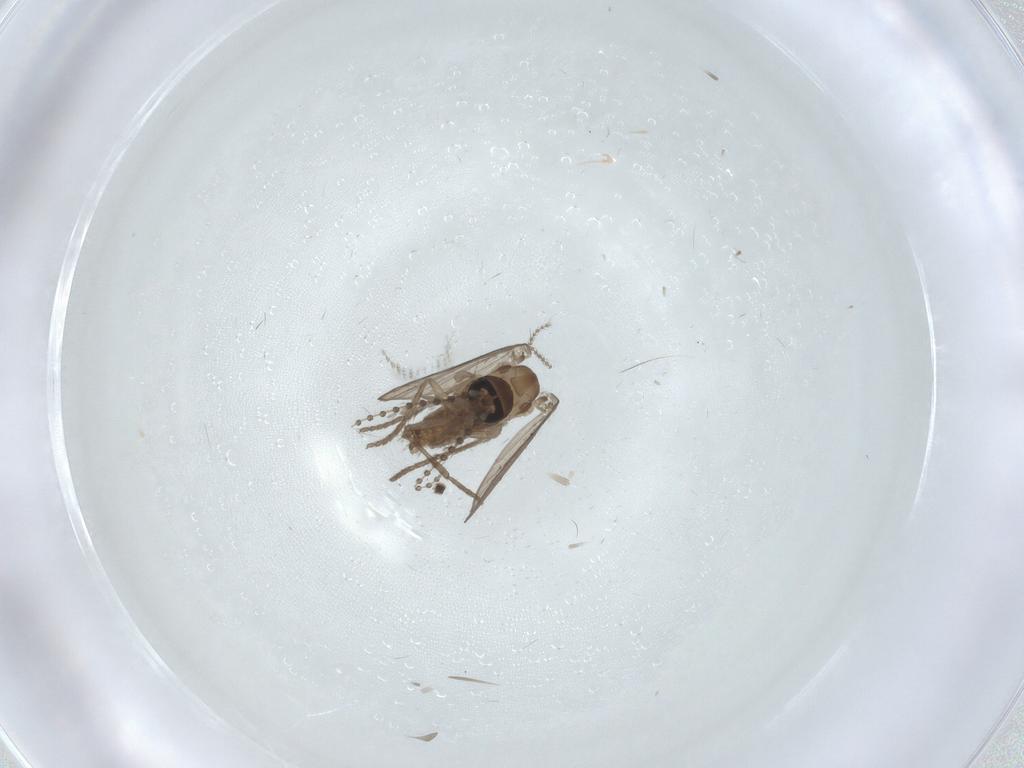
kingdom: Animalia
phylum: Arthropoda
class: Insecta
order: Diptera
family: Psychodidae
